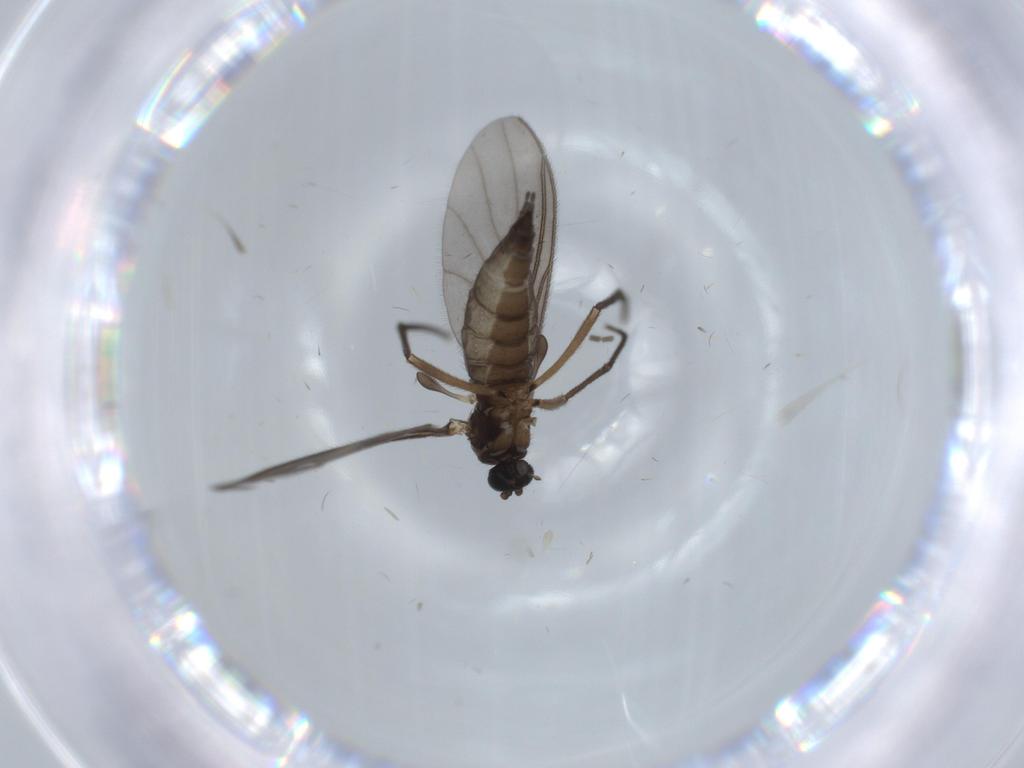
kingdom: Animalia
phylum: Arthropoda
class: Insecta
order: Diptera
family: Sciaridae
